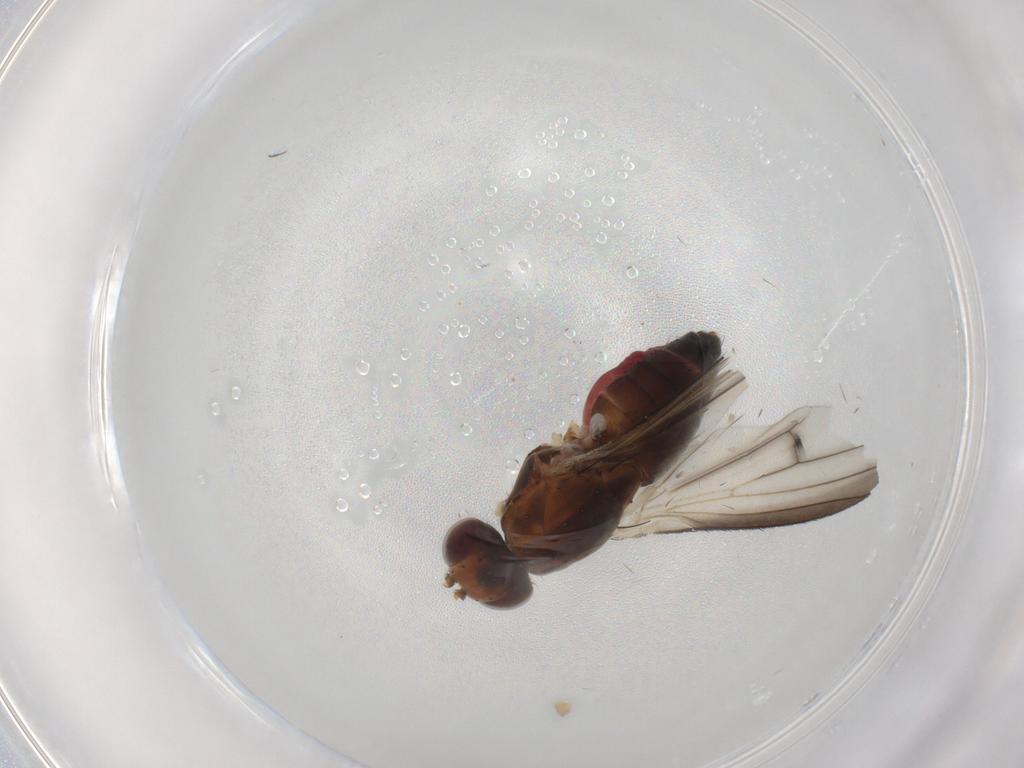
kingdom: Animalia
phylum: Arthropoda
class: Insecta
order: Diptera
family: Heleomyzidae
